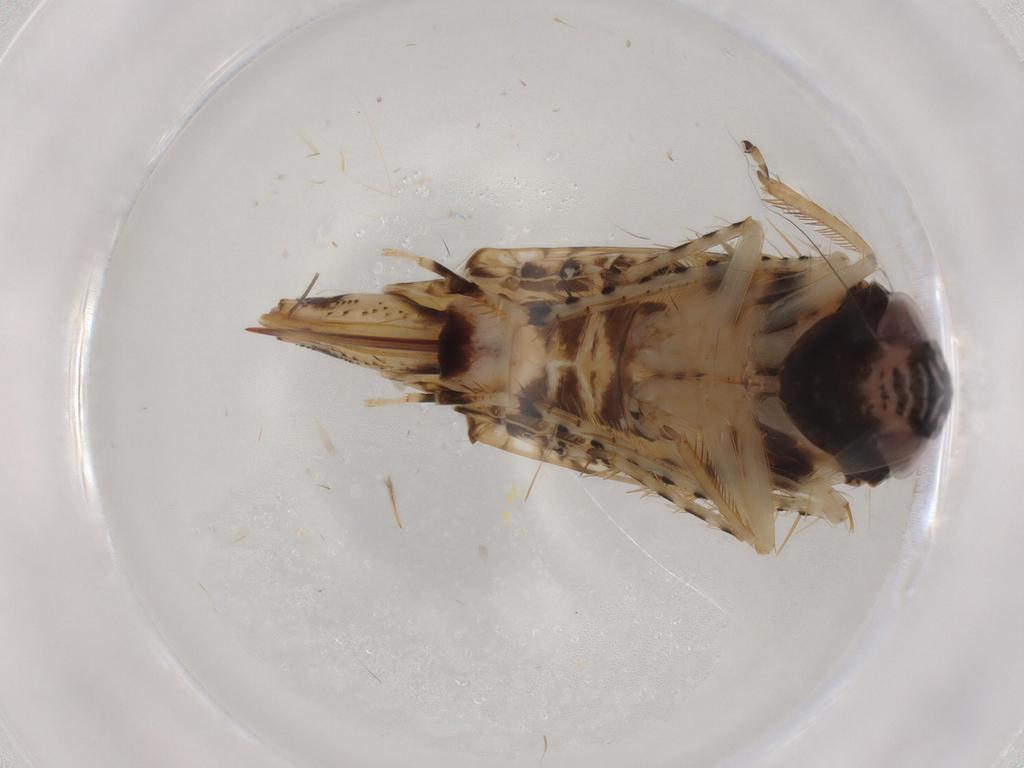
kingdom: Animalia
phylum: Arthropoda
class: Insecta
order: Hemiptera
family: Cicadellidae
